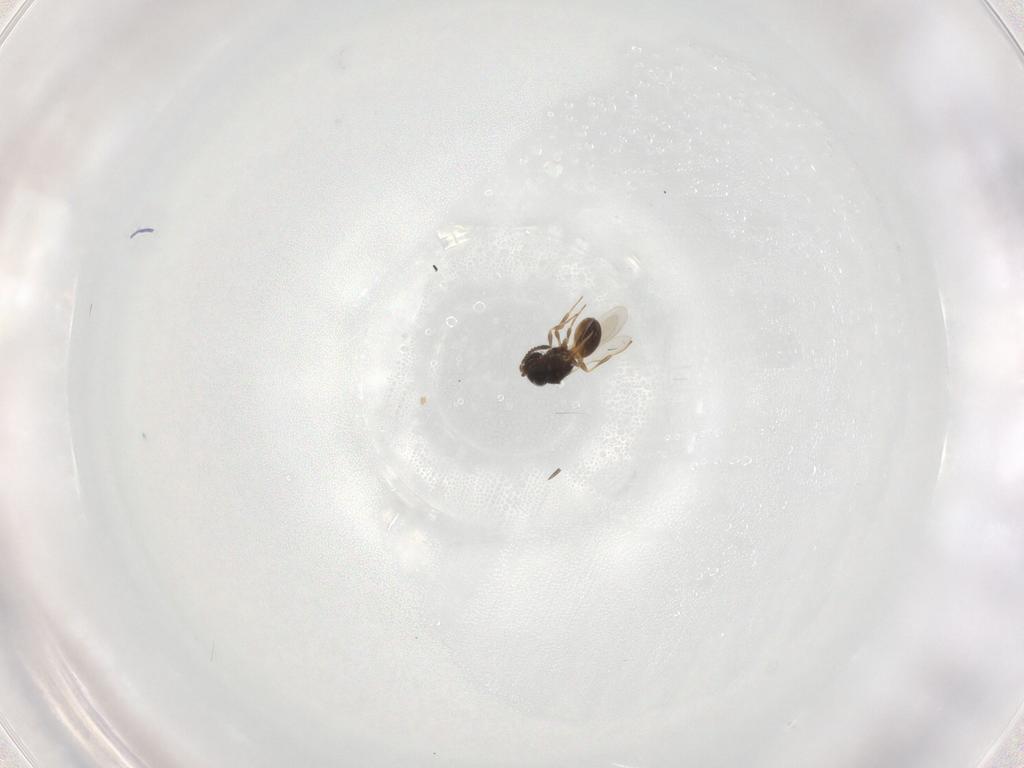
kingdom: Animalia
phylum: Arthropoda
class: Insecta
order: Hymenoptera
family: Scelionidae
